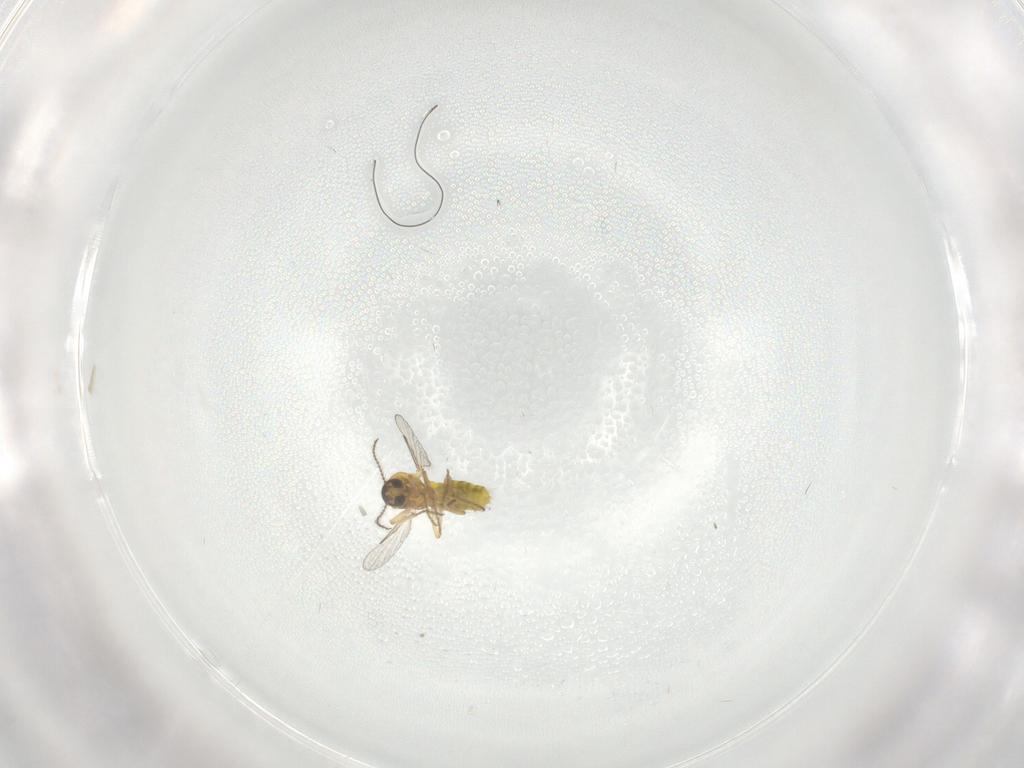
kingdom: Animalia
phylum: Arthropoda
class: Insecta
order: Diptera
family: Ceratopogonidae
